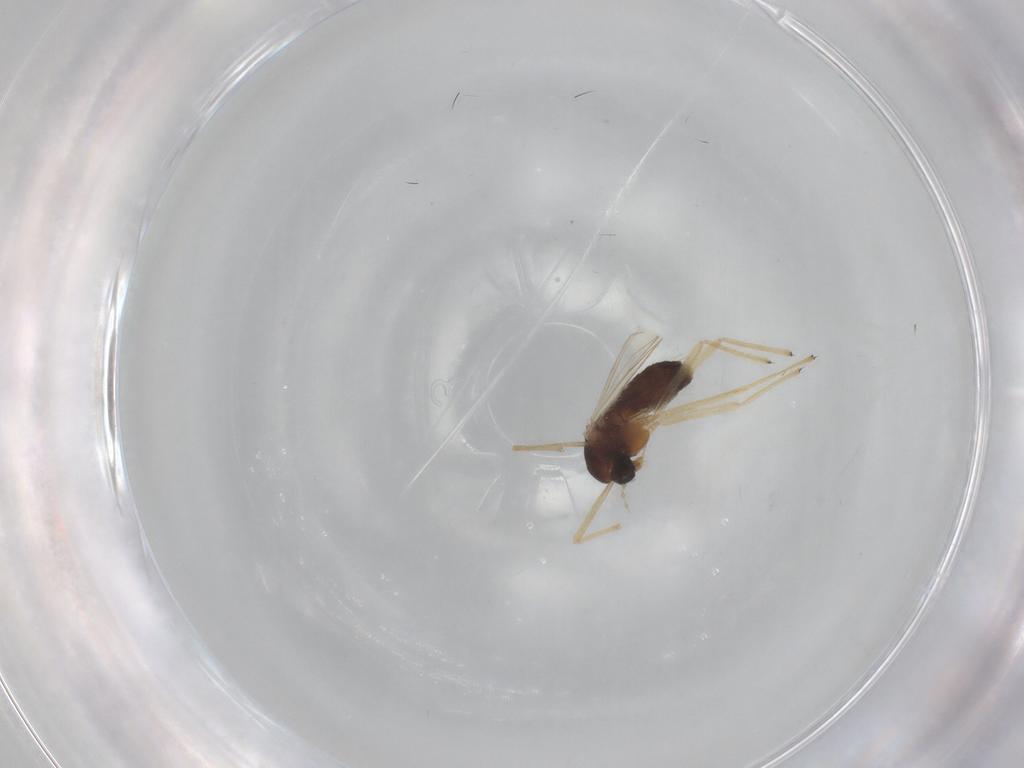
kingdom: Animalia
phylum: Arthropoda
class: Insecta
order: Diptera
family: Chironomidae
